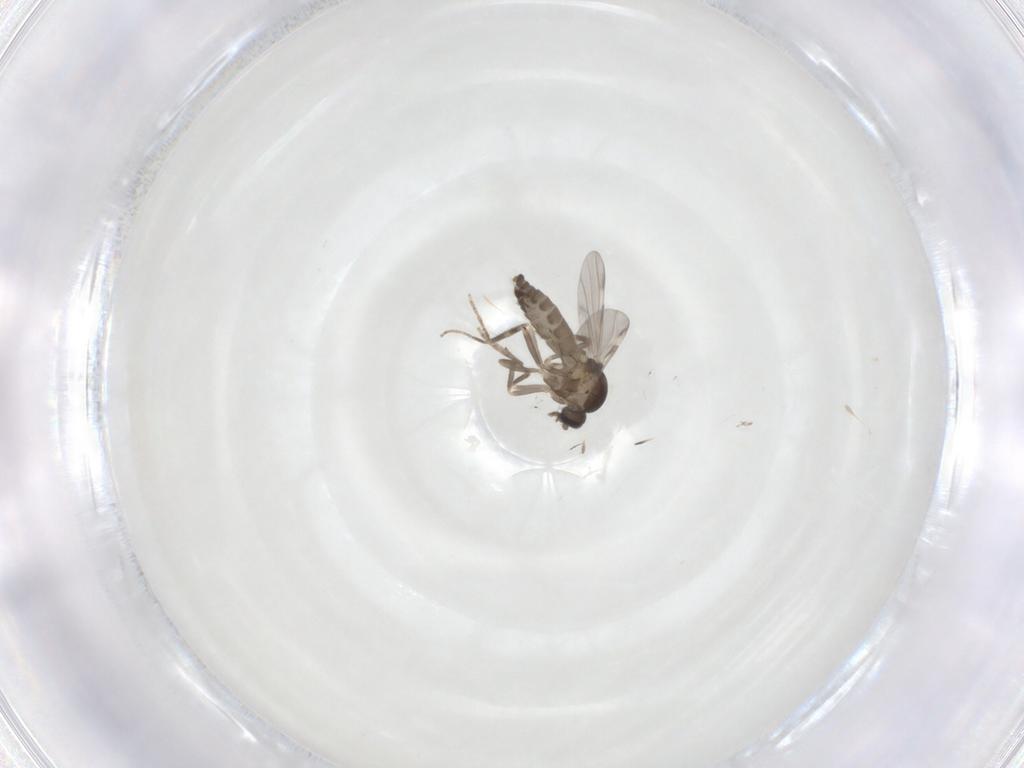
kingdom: Animalia
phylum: Arthropoda
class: Insecta
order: Diptera
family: Ceratopogonidae
